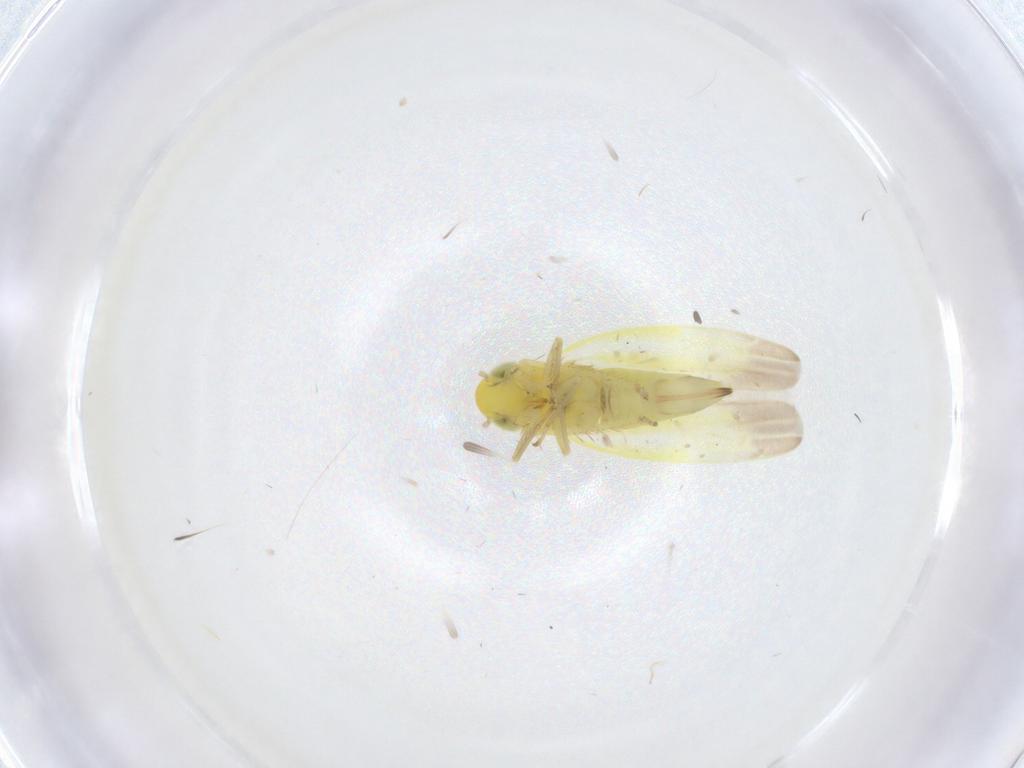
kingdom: Animalia
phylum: Arthropoda
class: Insecta
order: Hemiptera
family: Cicadellidae
